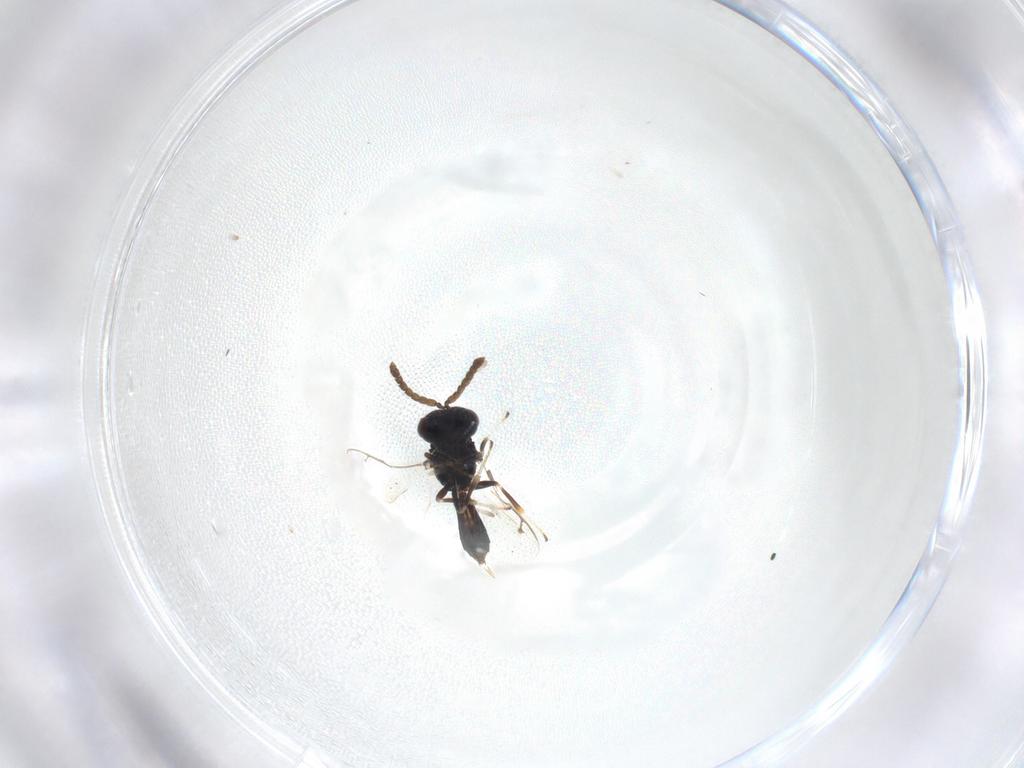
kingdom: Animalia
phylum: Arthropoda
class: Insecta
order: Hymenoptera
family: Pteromalidae
